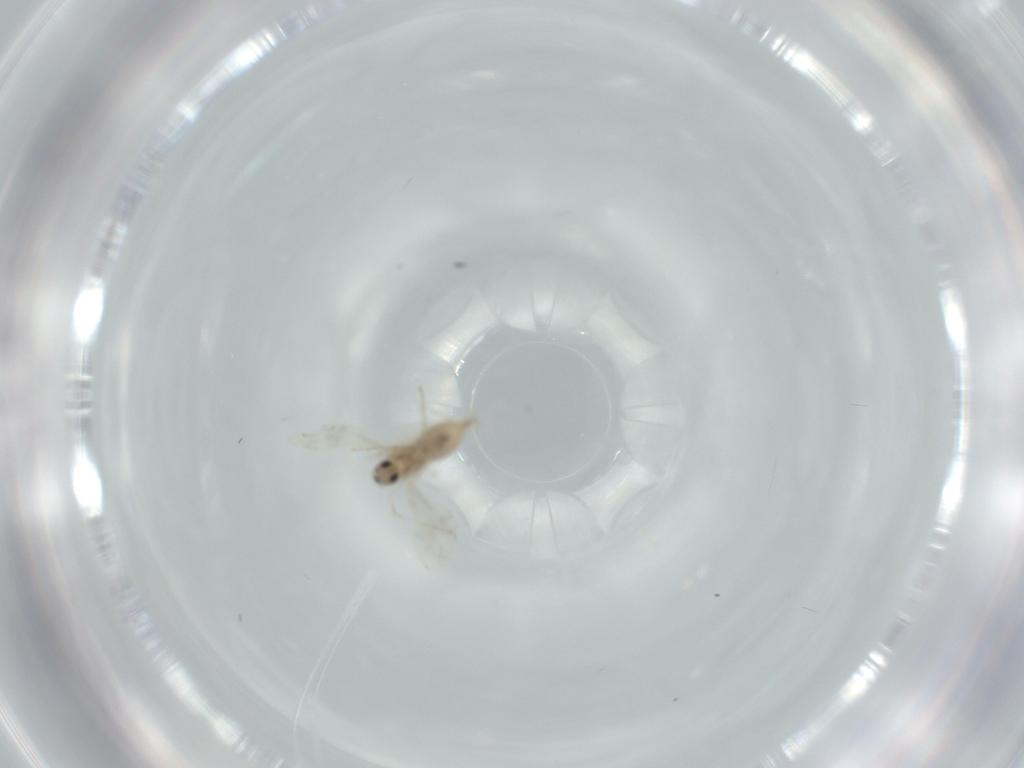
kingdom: Animalia
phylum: Arthropoda
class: Insecta
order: Diptera
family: Cecidomyiidae
